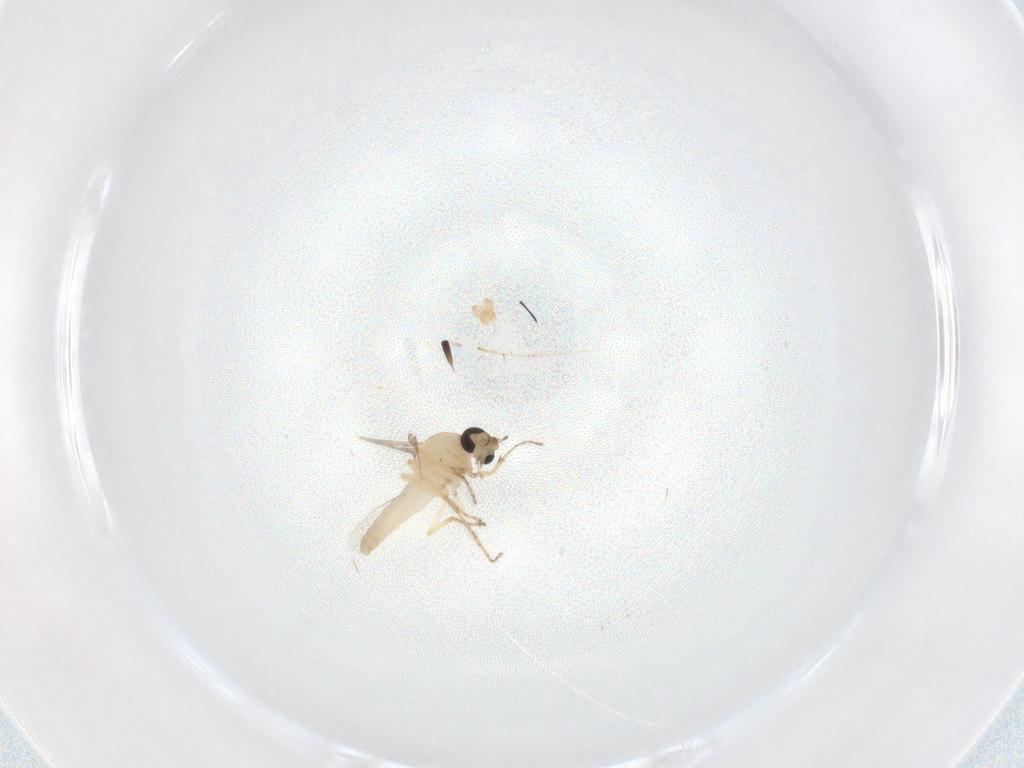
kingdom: Animalia
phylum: Arthropoda
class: Insecta
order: Diptera
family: Ceratopogonidae
